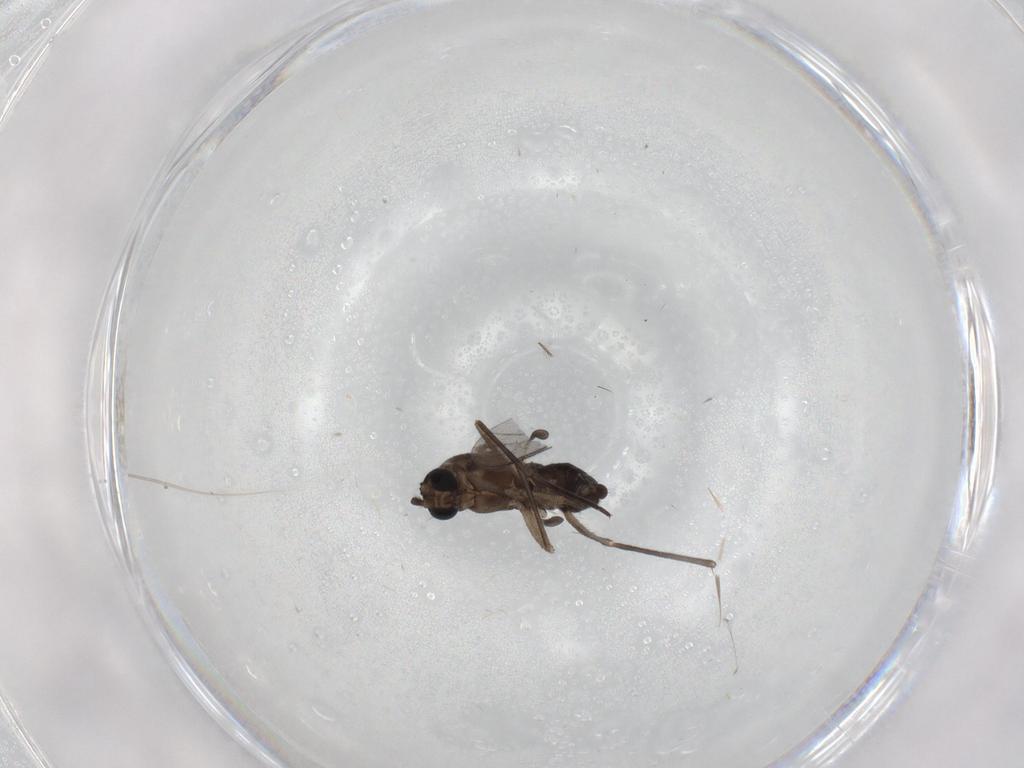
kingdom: Animalia
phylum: Arthropoda
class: Insecta
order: Diptera
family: Sciaridae
